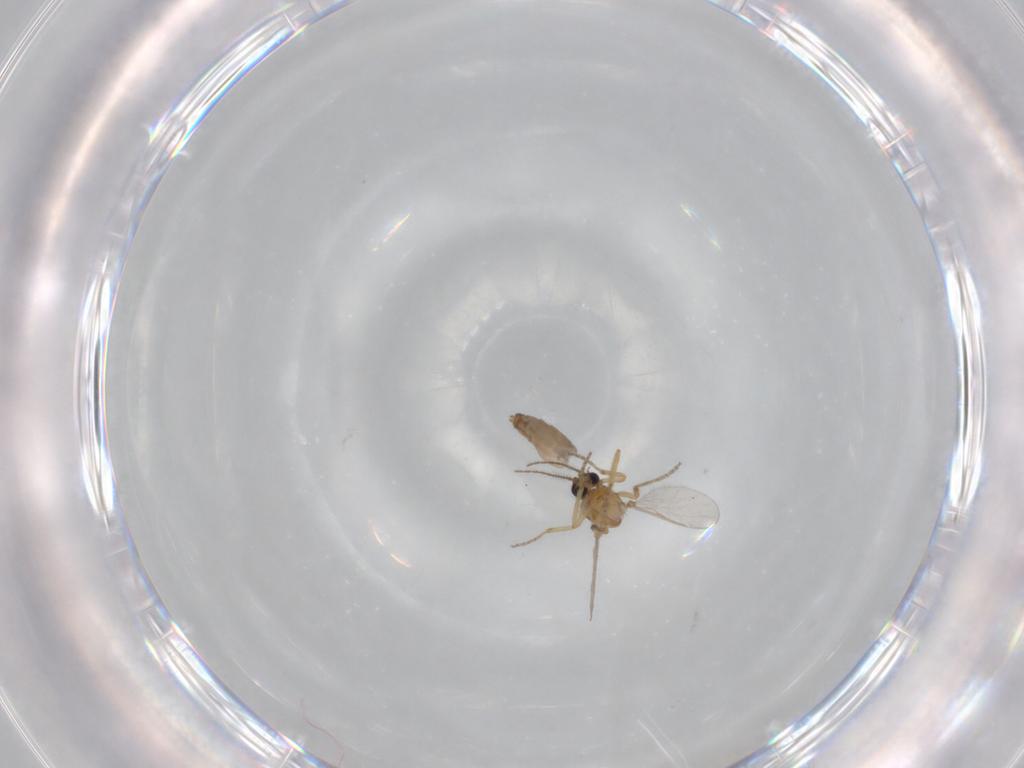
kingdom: Animalia
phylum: Arthropoda
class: Insecta
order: Diptera
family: Ceratopogonidae
